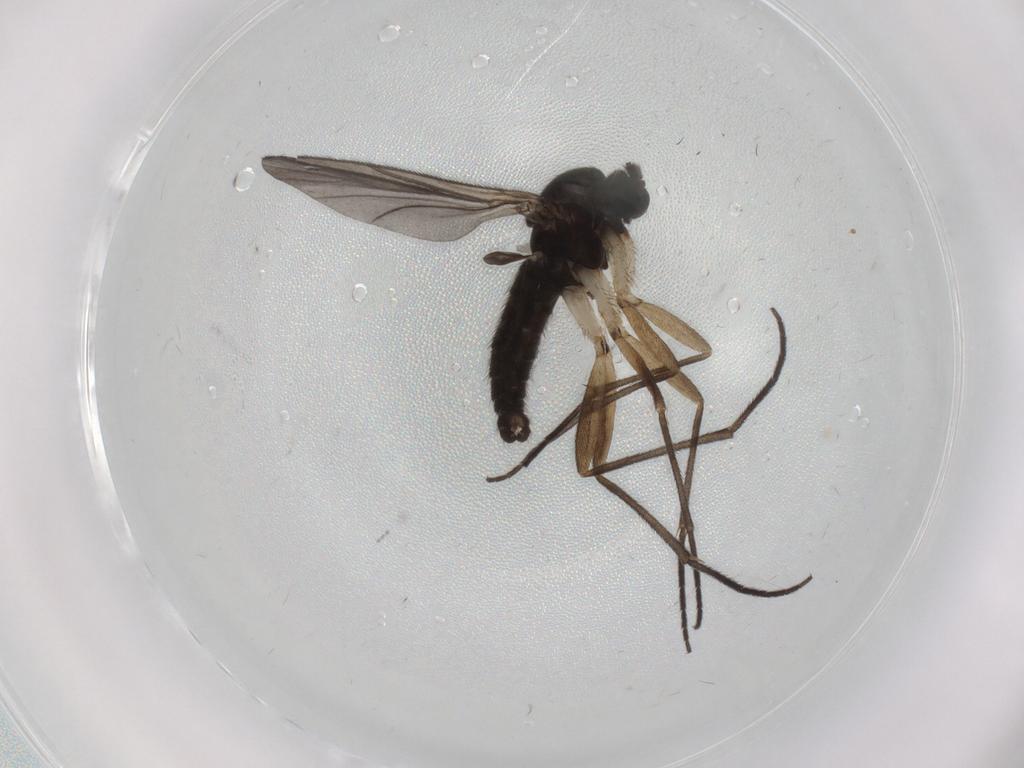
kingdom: Animalia
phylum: Arthropoda
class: Insecta
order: Diptera
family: Sciaridae
